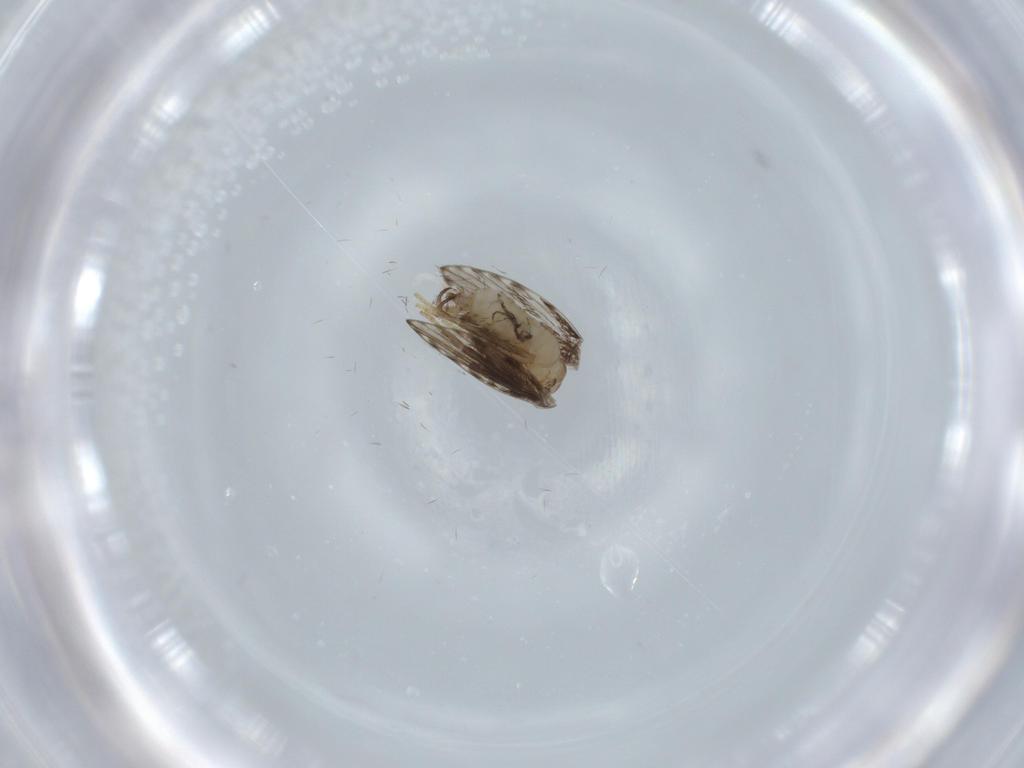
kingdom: Animalia
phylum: Arthropoda
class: Insecta
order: Diptera
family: Cecidomyiidae
